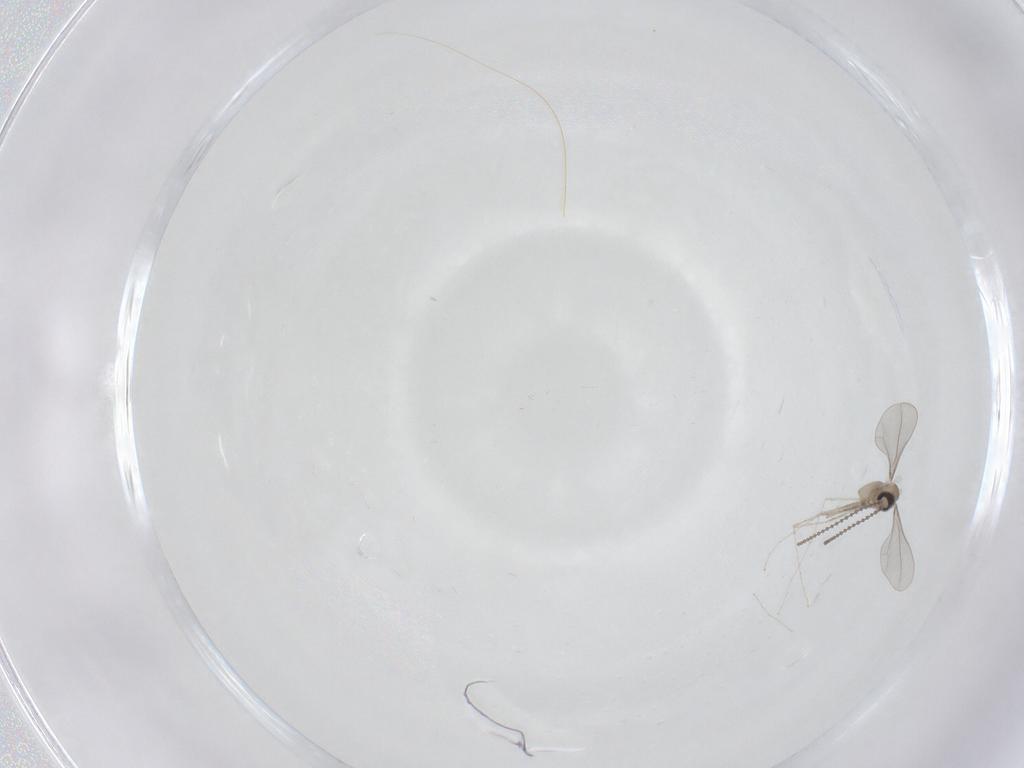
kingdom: Animalia
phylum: Arthropoda
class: Insecta
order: Diptera
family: Cecidomyiidae
